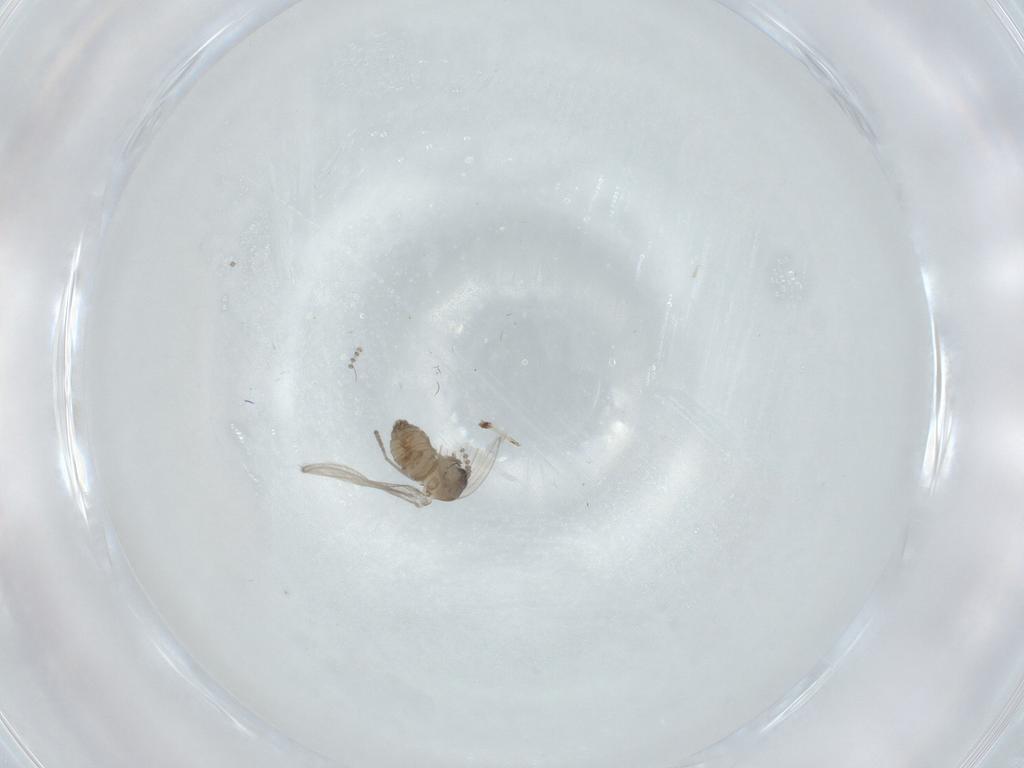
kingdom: Animalia
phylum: Arthropoda
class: Insecta
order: Diptera
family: Psychodidae
